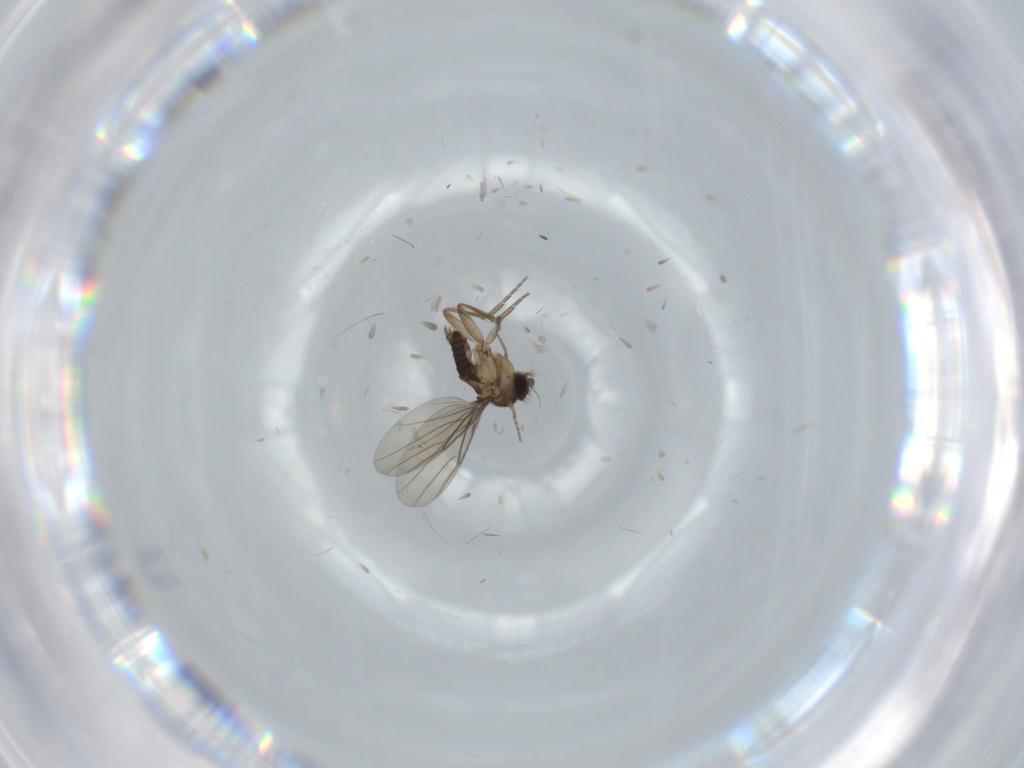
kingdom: Animalia
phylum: Arthropoda
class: Insecta
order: Diptera
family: Phoridae
